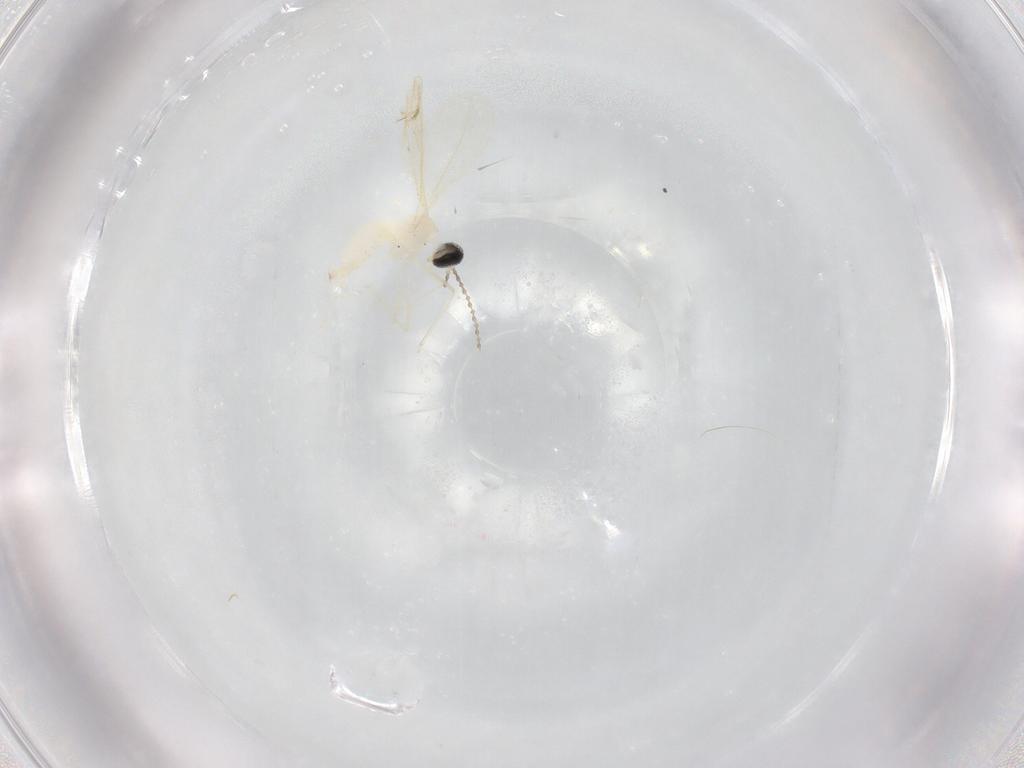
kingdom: Animalia
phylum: Arthropoda
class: Insecta
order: Diptera
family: Cecidomyiidae
